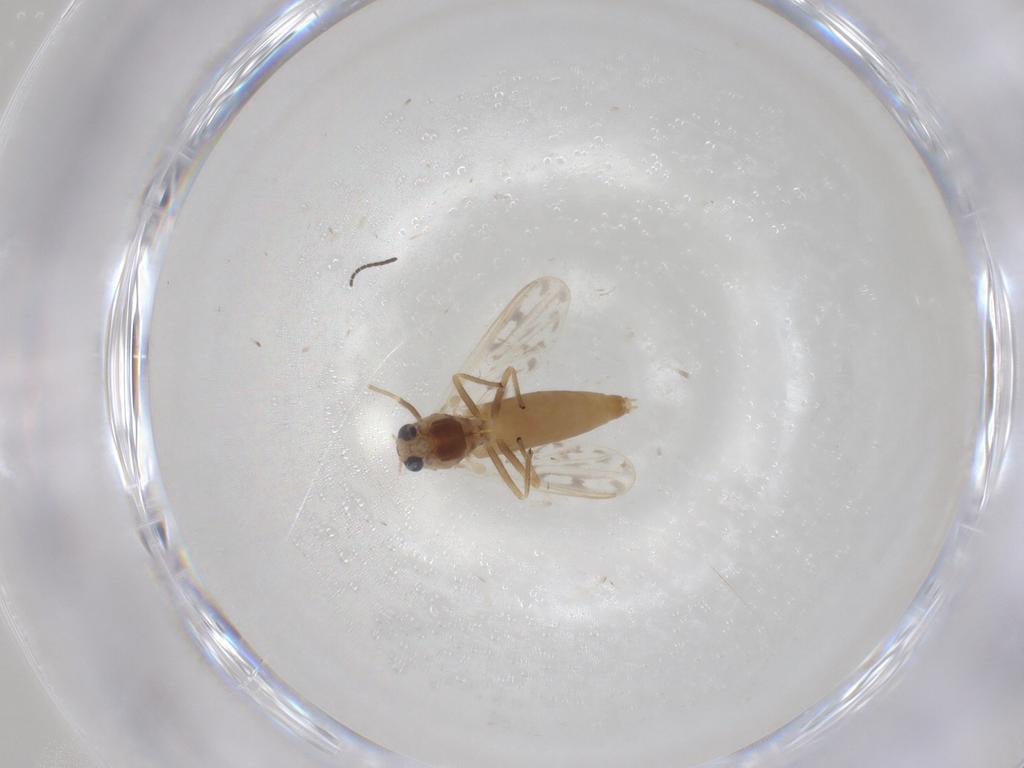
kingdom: Animalia
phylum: Arthropoda
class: Insecta
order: Diptera
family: Chironomidae
